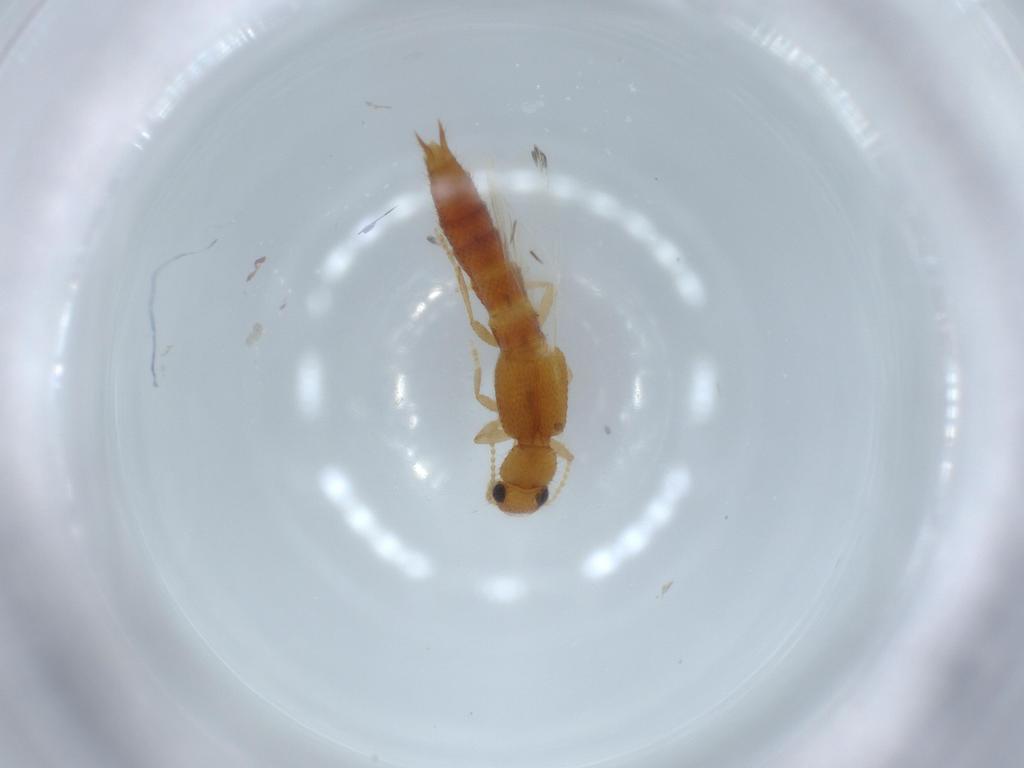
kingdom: Animalia
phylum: Arthropoda
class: Insecta
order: Coleoptera
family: Staphylinidae
